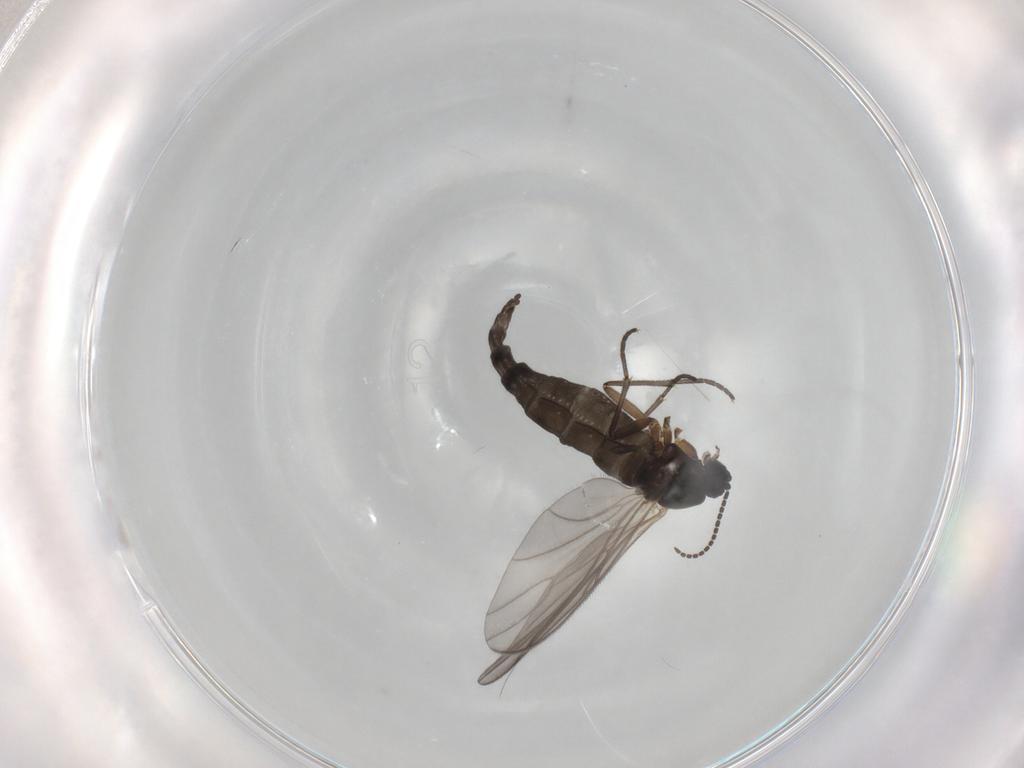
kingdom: Animalia
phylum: Arthropoda
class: Insecta
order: Diptera
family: Sciaridae
